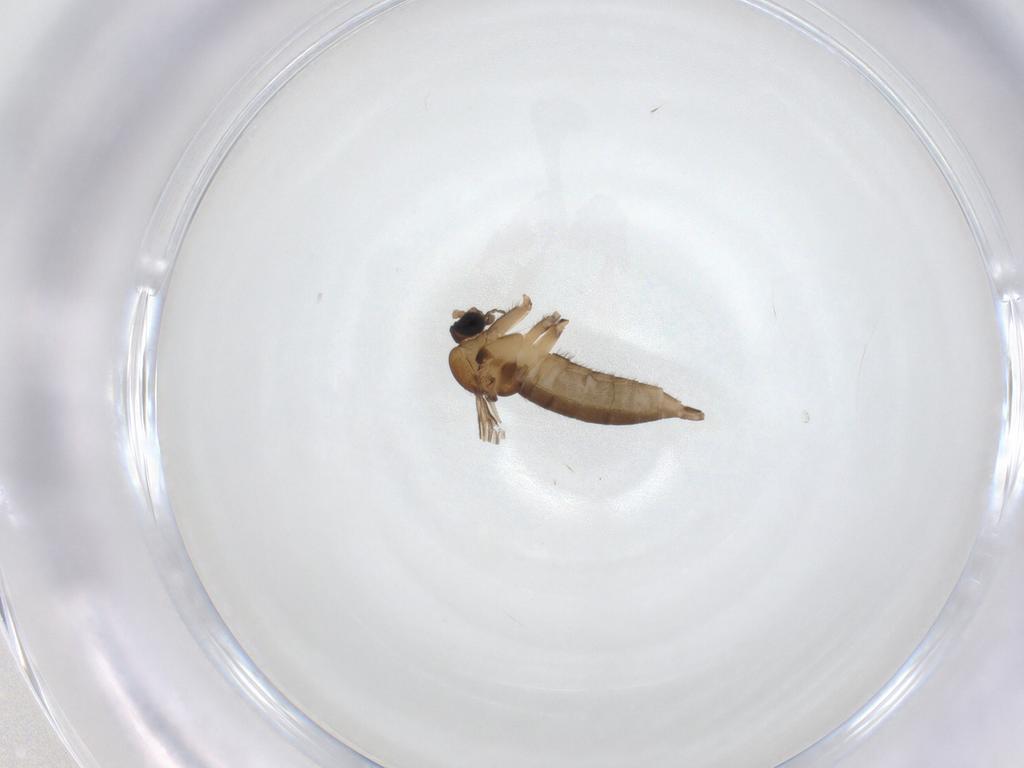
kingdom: Animalia
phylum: Arthropoda
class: Insecta
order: Diptera
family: Sciaridae
